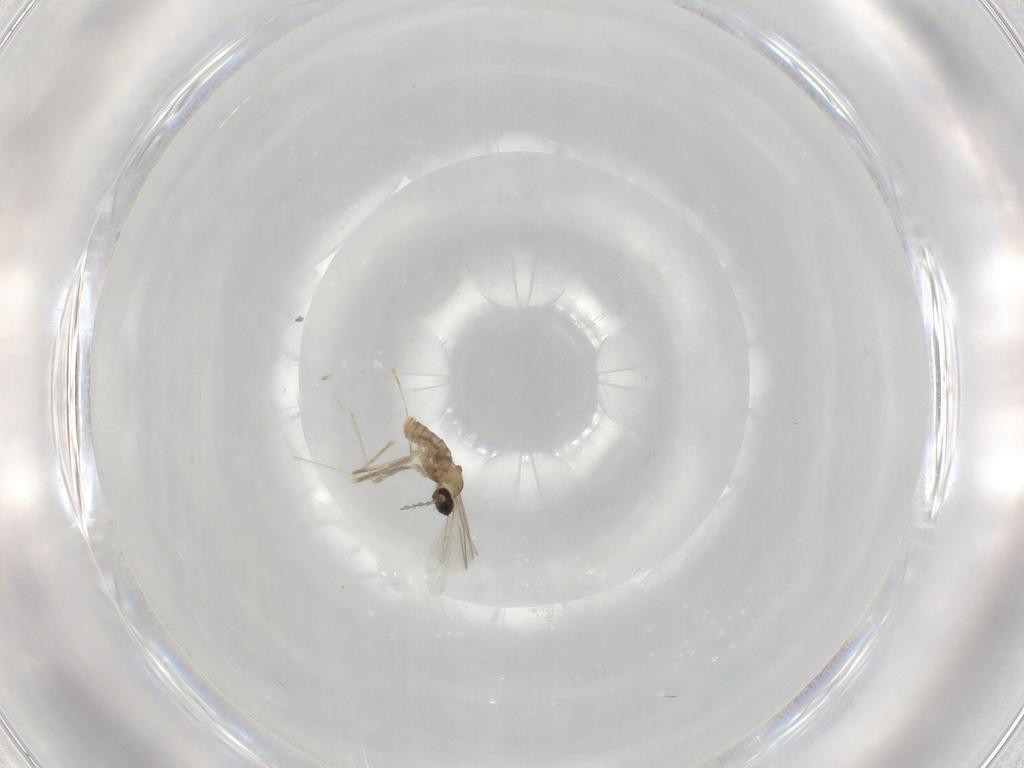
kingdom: Animalia
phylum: Arthropoda
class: Insecta
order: Diptera
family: Cecidomyiidae
